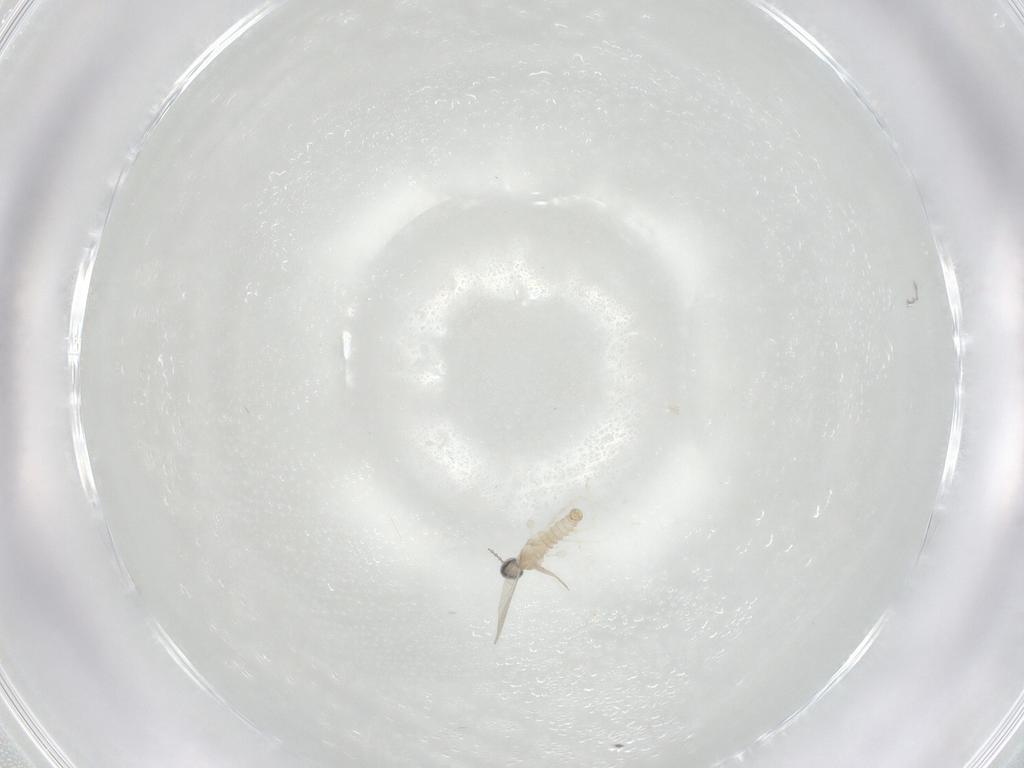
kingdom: Animalia
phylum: Arthropoda
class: Insecta
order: Diptera
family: Cecidomyiidae
